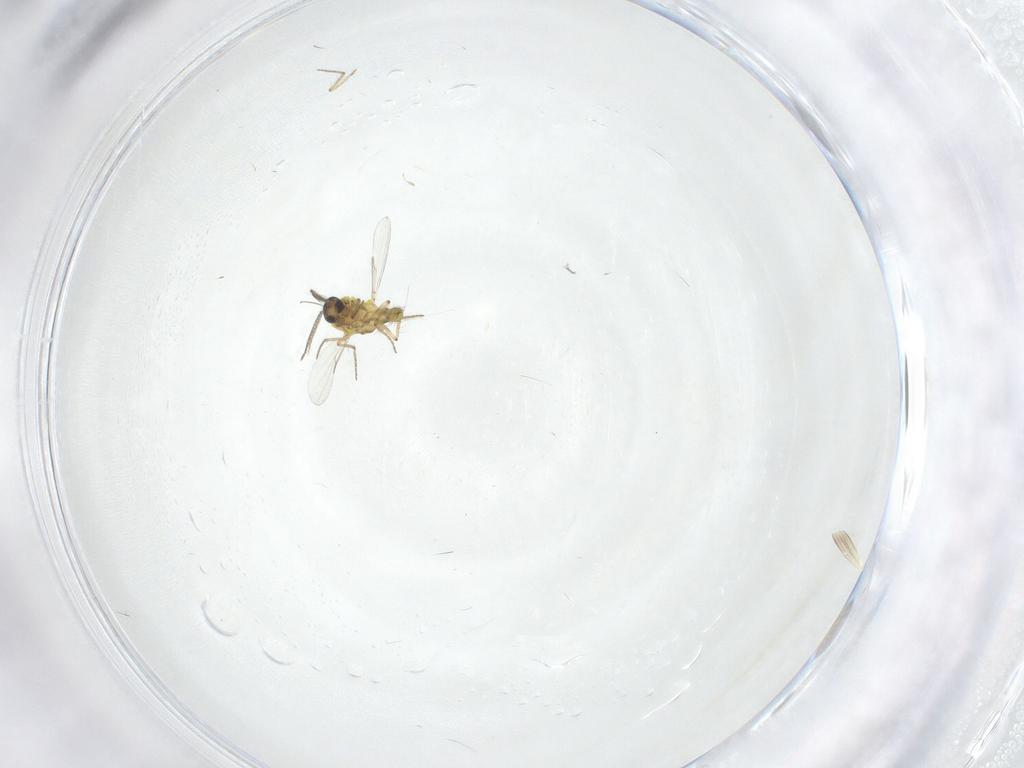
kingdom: Animalia
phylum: Arthropoda
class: Insecta
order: Diptera
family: Ceratopogonidae
